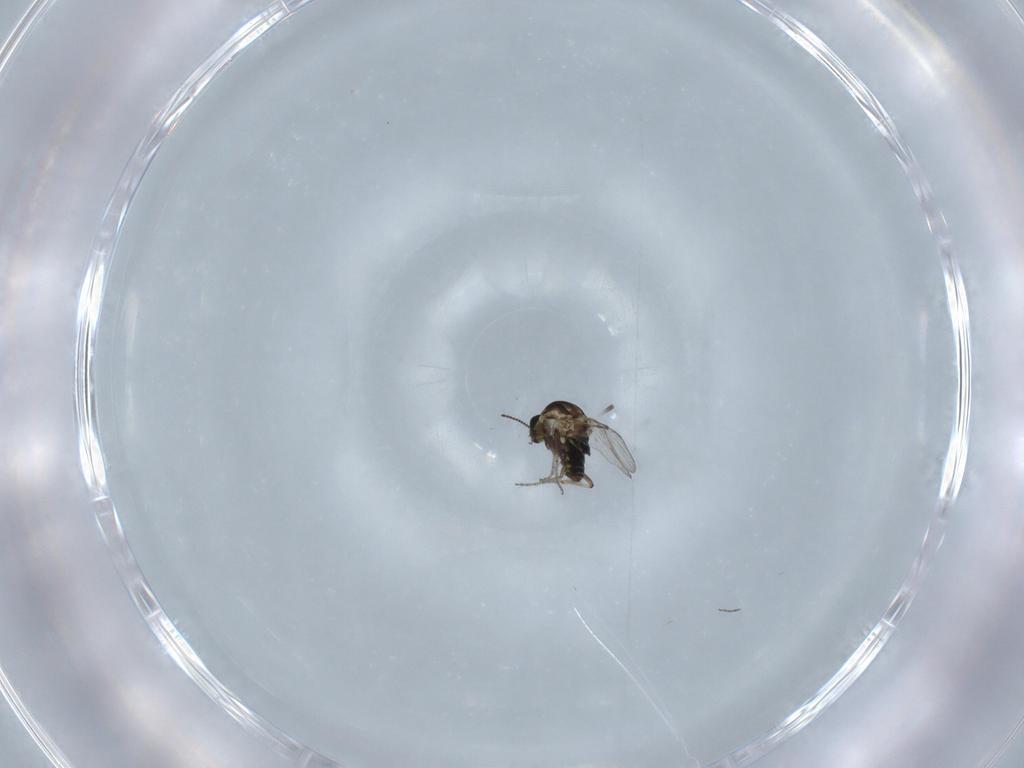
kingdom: Animalia
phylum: Arthropoda
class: Insecta
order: Diptera
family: Ceratopogonidae
